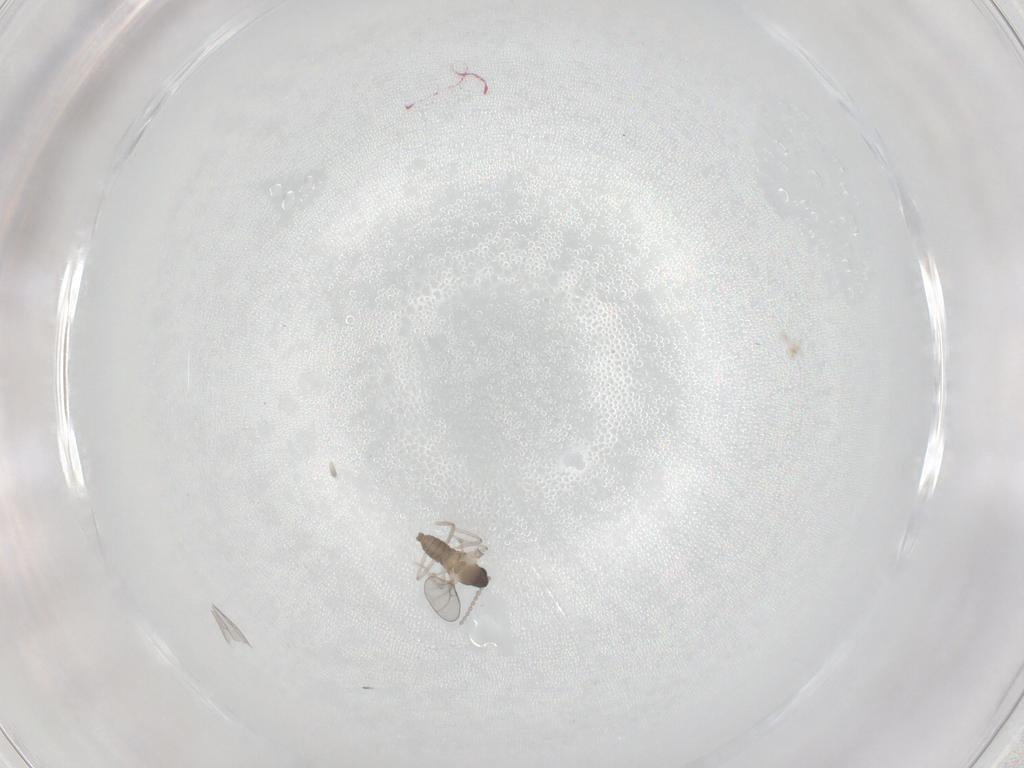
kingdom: Animalia
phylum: Arthropoda
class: Insecta
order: Diptera
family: Cecidomyiidae
